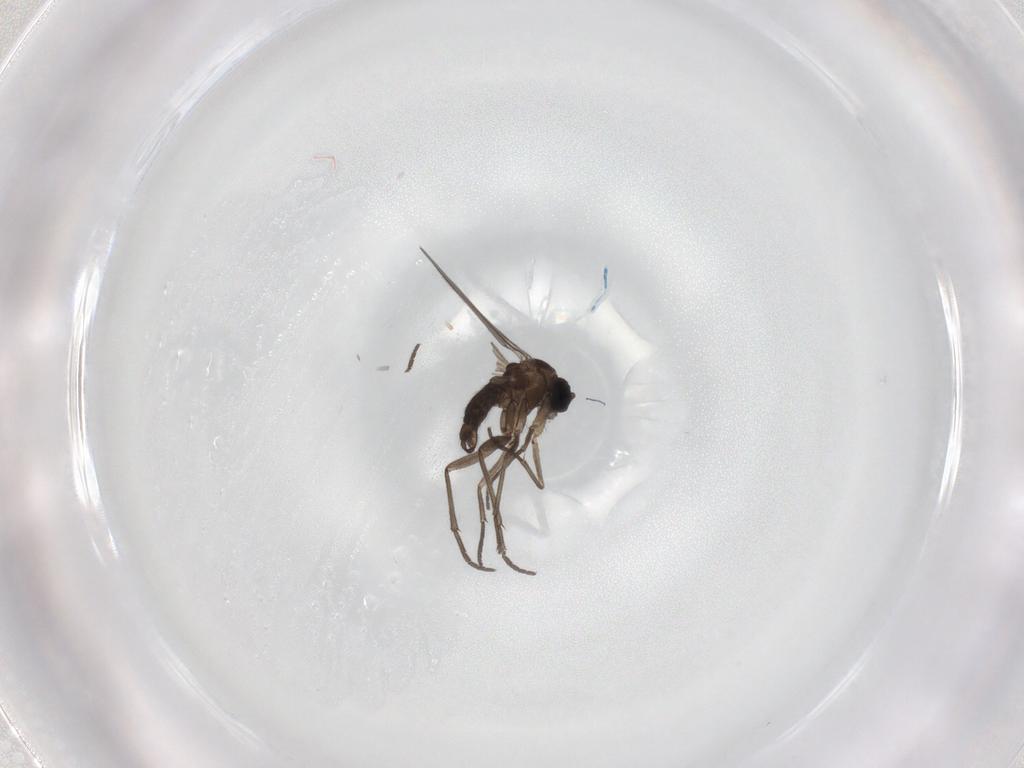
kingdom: Animalia
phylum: Arthropoda
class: Insecta
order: Diptera
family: Sciaridae
